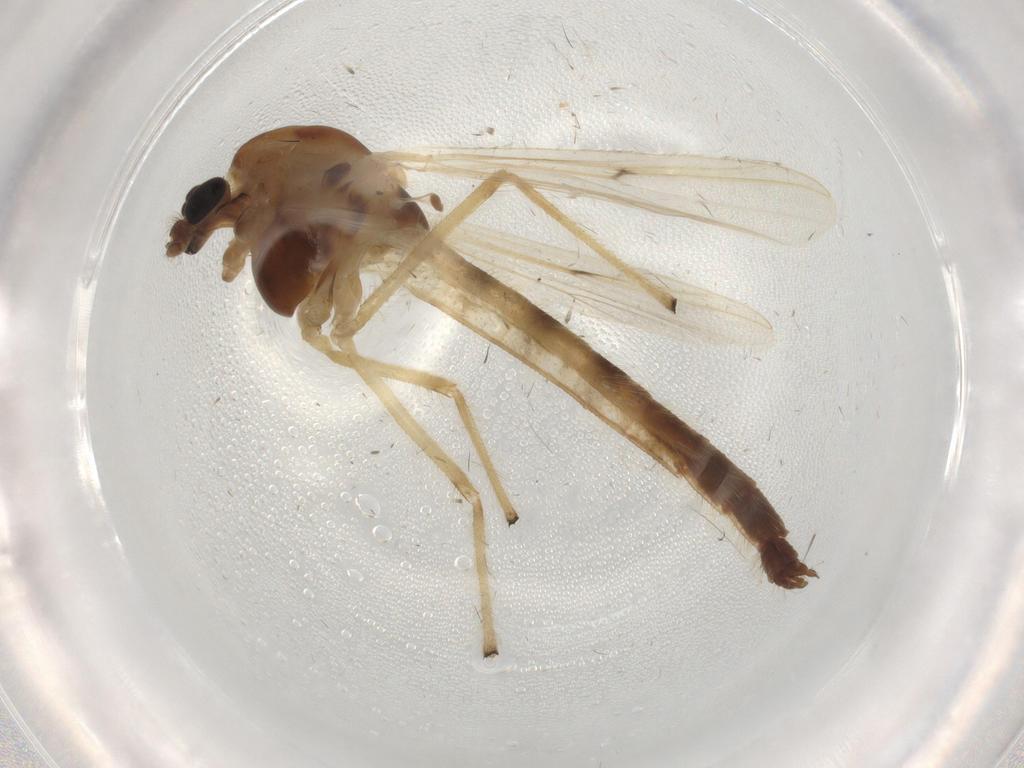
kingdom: Animalia
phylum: Arthropoda
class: Insecta
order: Diptera
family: Chironomidae
